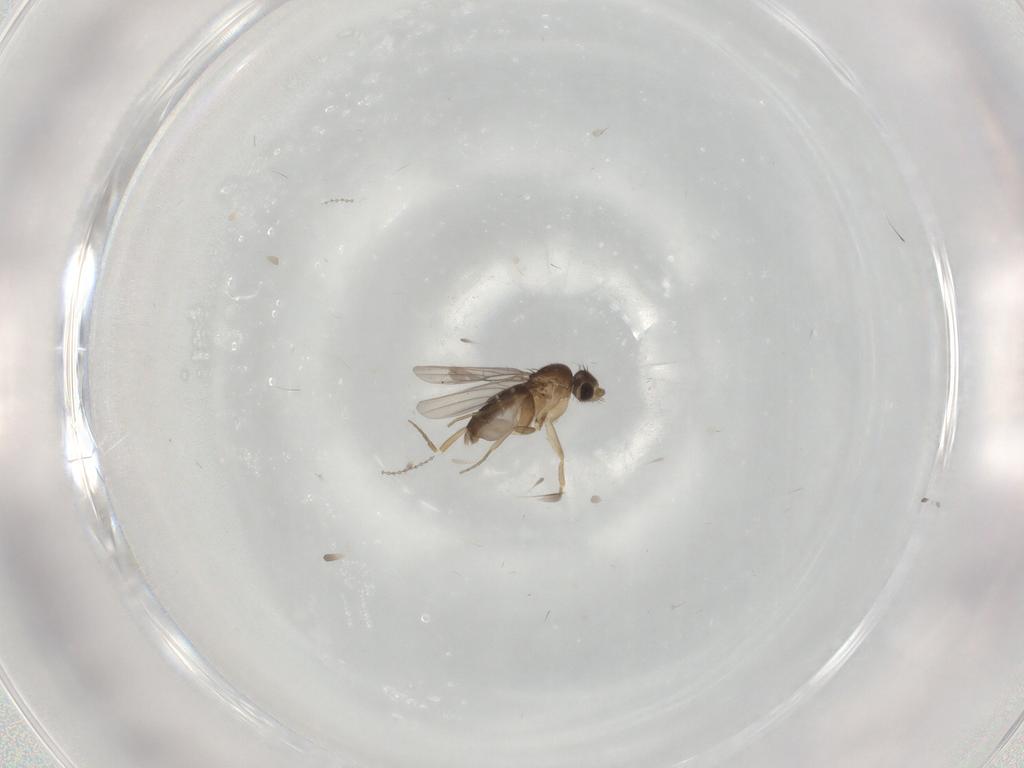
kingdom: Animalia
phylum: Arthropoda
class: Insecta
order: Diptera
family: Cecidomyiidae
